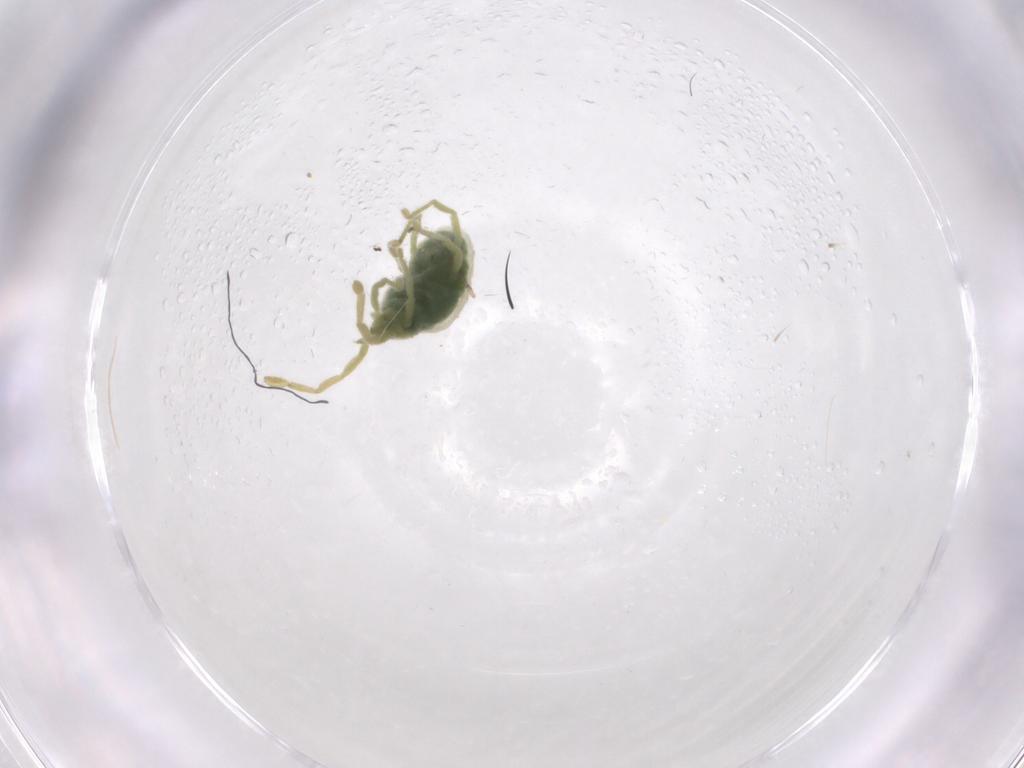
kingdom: Animalia
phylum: Arthropoda
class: Arachnida
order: Trombidiformes
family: Erythraeidae
